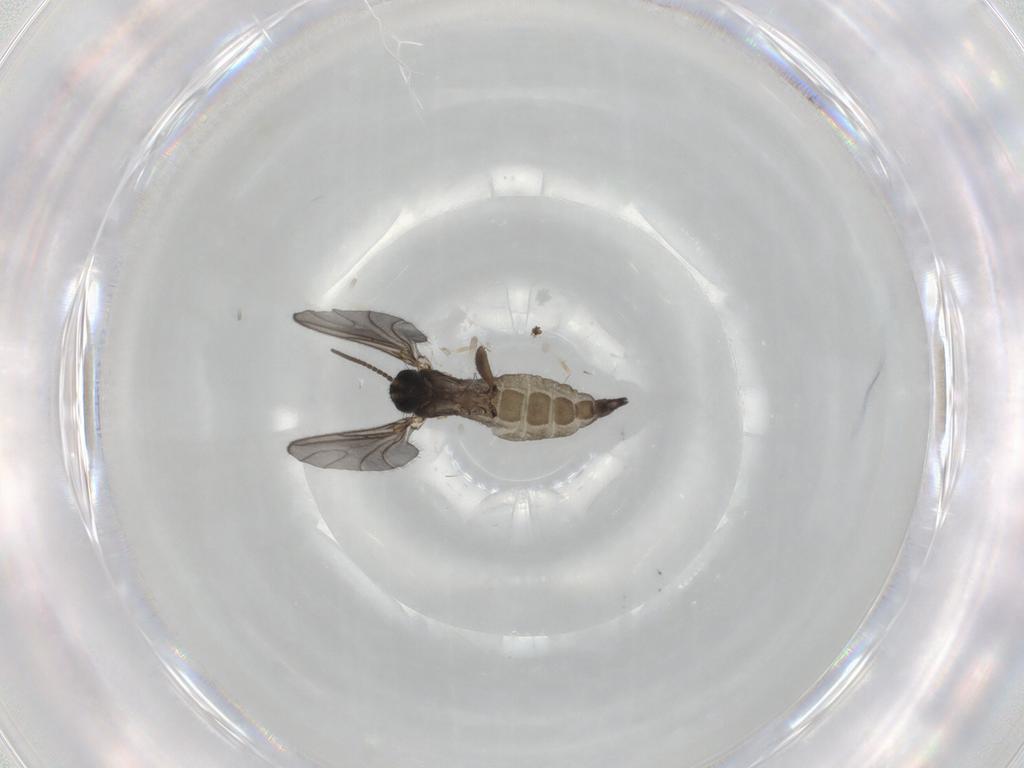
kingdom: Animalia
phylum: Arthropoda
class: Insecta
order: Diptera
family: Sciaridae
